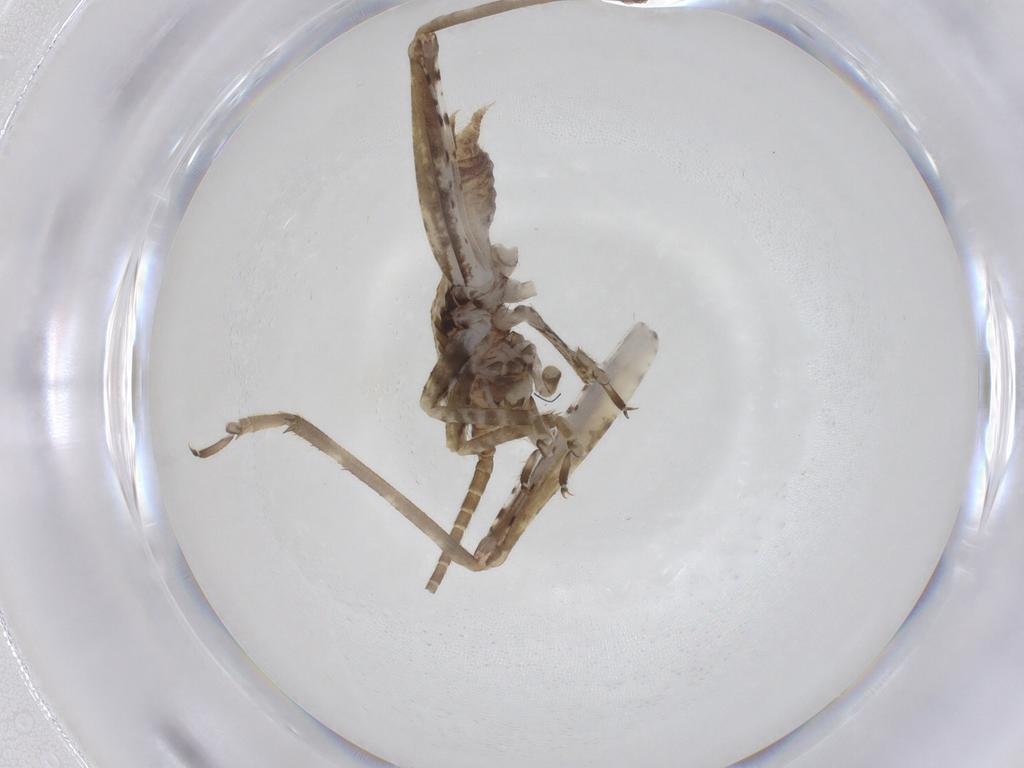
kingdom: Animalia
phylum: Arthropoda
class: Insecta
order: Orthoptera
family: Gryllidae
